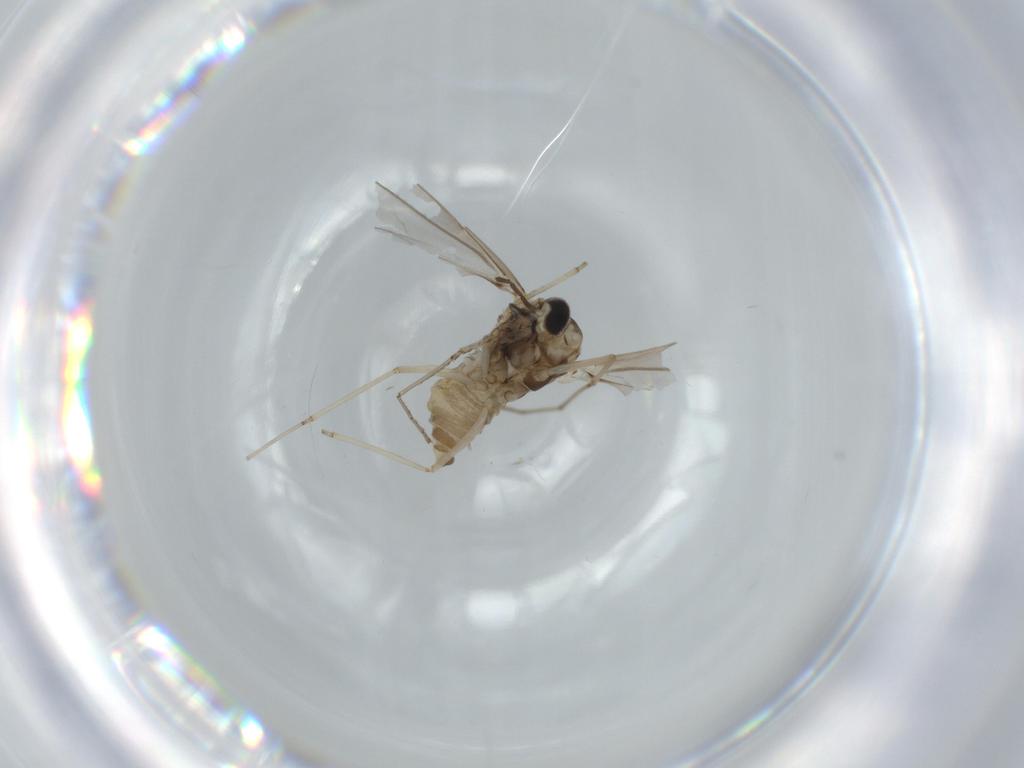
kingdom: Animalia
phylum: Arthropoda
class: Insecta
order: Diptera
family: Cecidomyiidae
